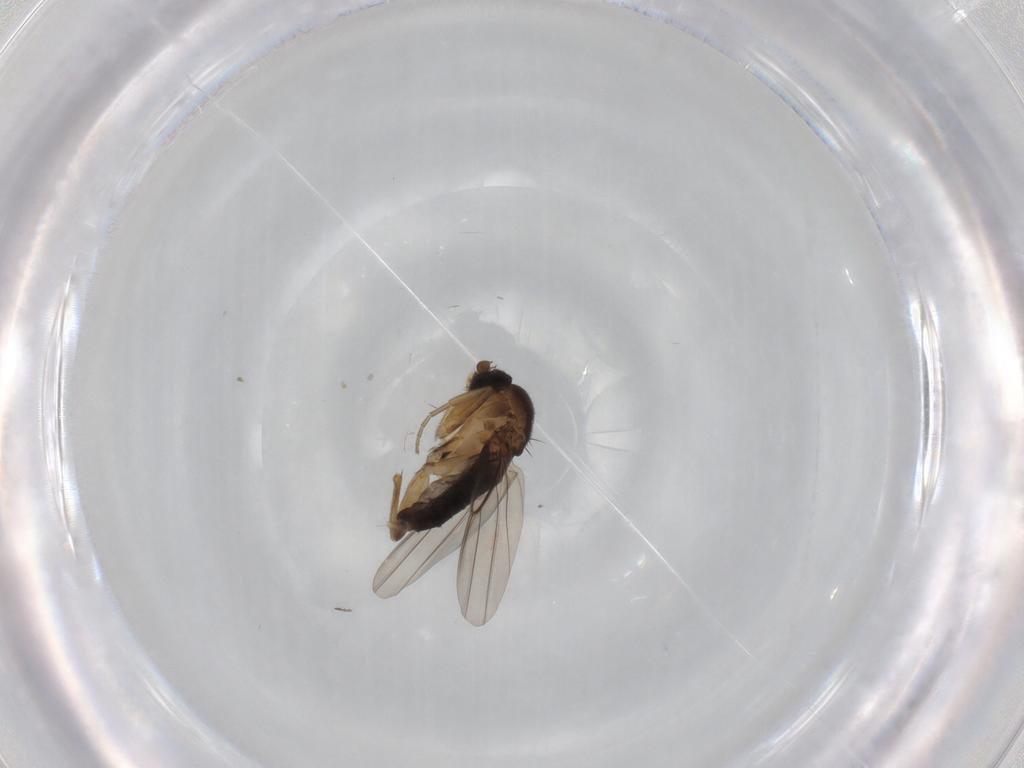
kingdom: Animalia
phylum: Arthropoda
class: Insecta
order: Diptera
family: Phoridae
